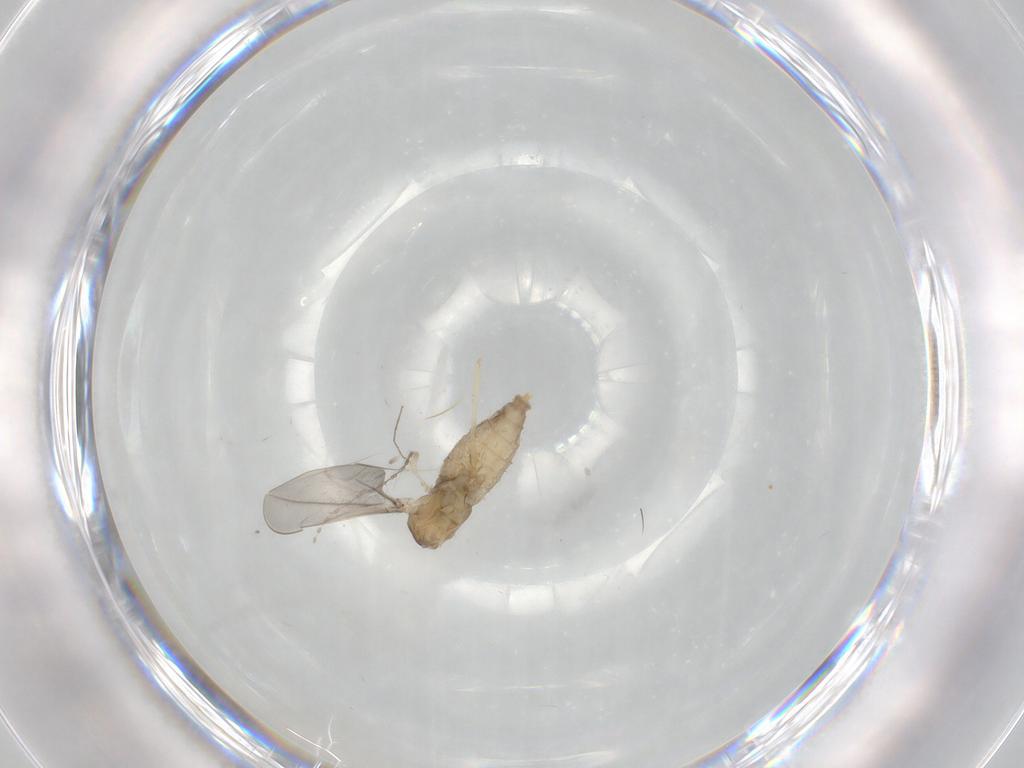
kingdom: Animalia
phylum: Arthropoda
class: Insecta
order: Diptera
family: Cecidomyiidae
